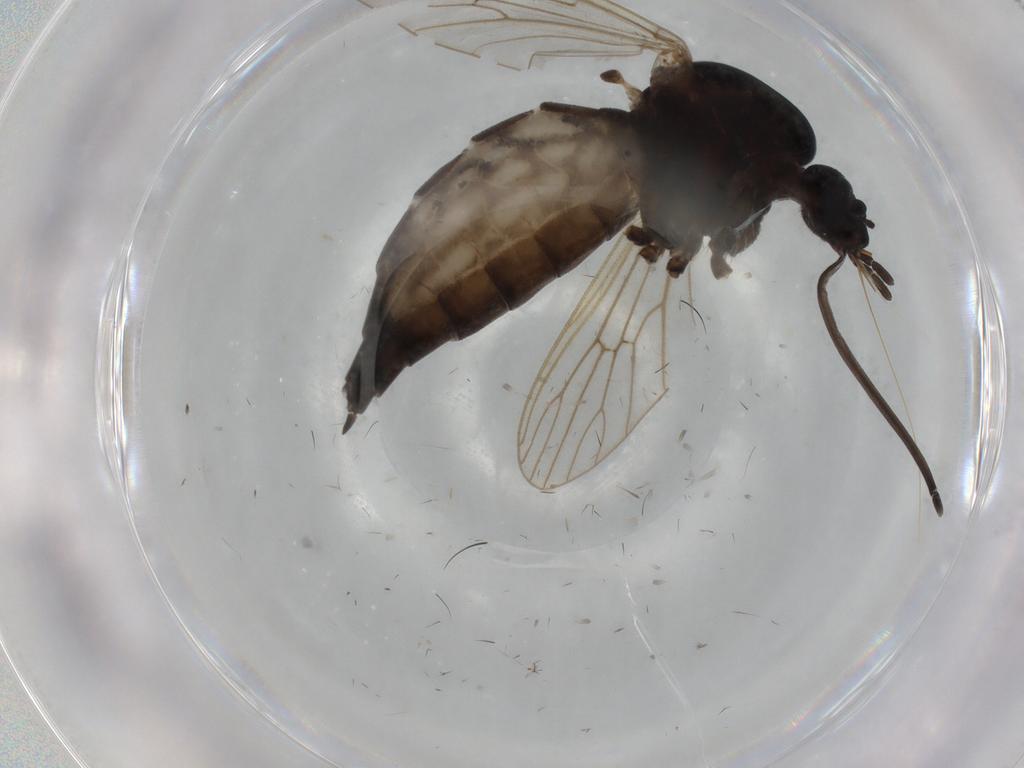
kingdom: Animalia
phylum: Arthropoda
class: Insecta
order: Diptera
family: Culicidae
